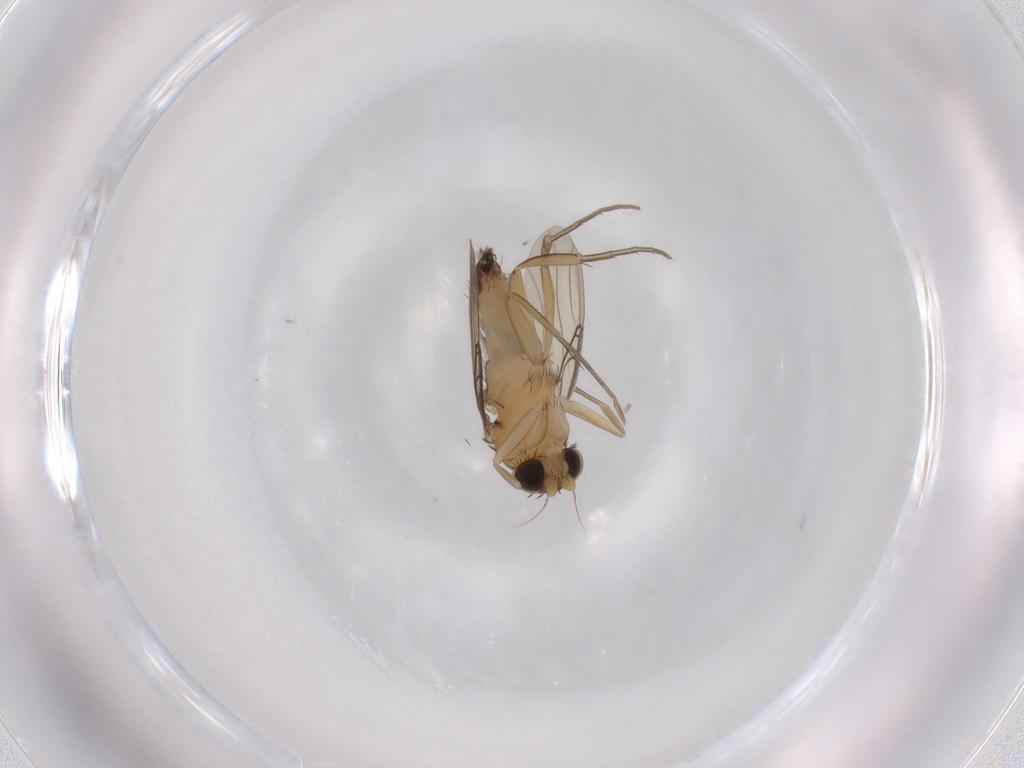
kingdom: Animalia
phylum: Arthropoda
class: Insecta
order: Diptera
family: Phoridae
